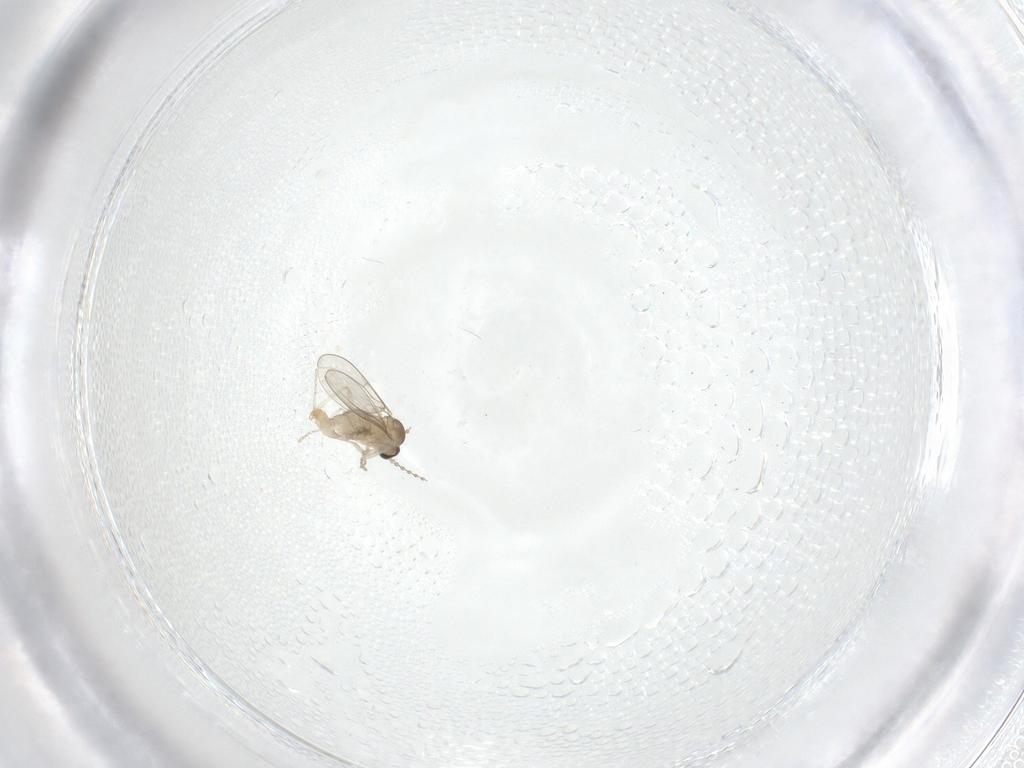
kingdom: Animalia
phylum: Arthropoda
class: Insecta
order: Diptera
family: Cecidomyiidae
